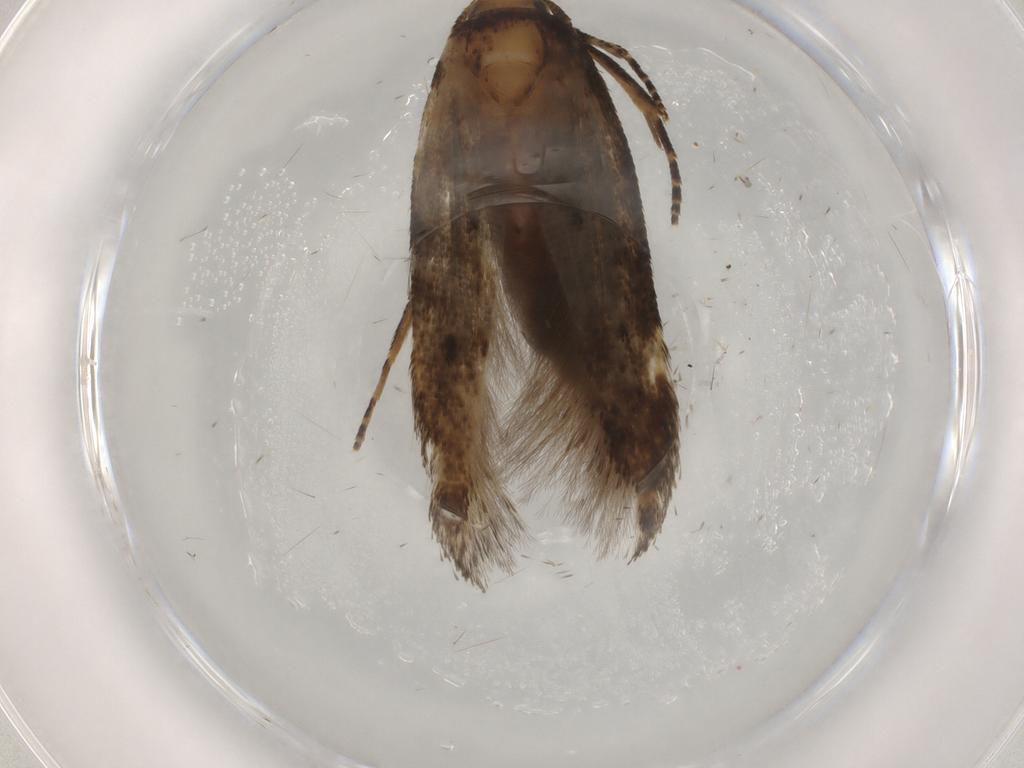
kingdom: Animalia
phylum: Arthropoda
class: Insecta
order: Lepidoptera
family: Cosmopterigidae
